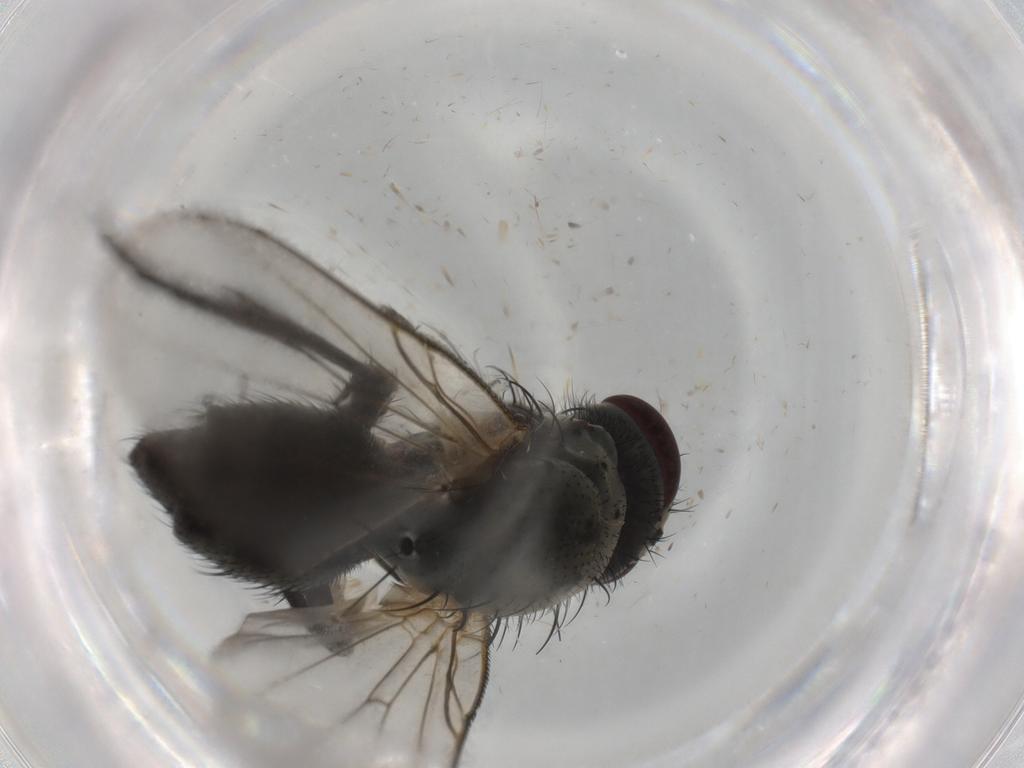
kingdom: Animalia
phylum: Arthropoda
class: Insecta
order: Diptera
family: Muscidae
